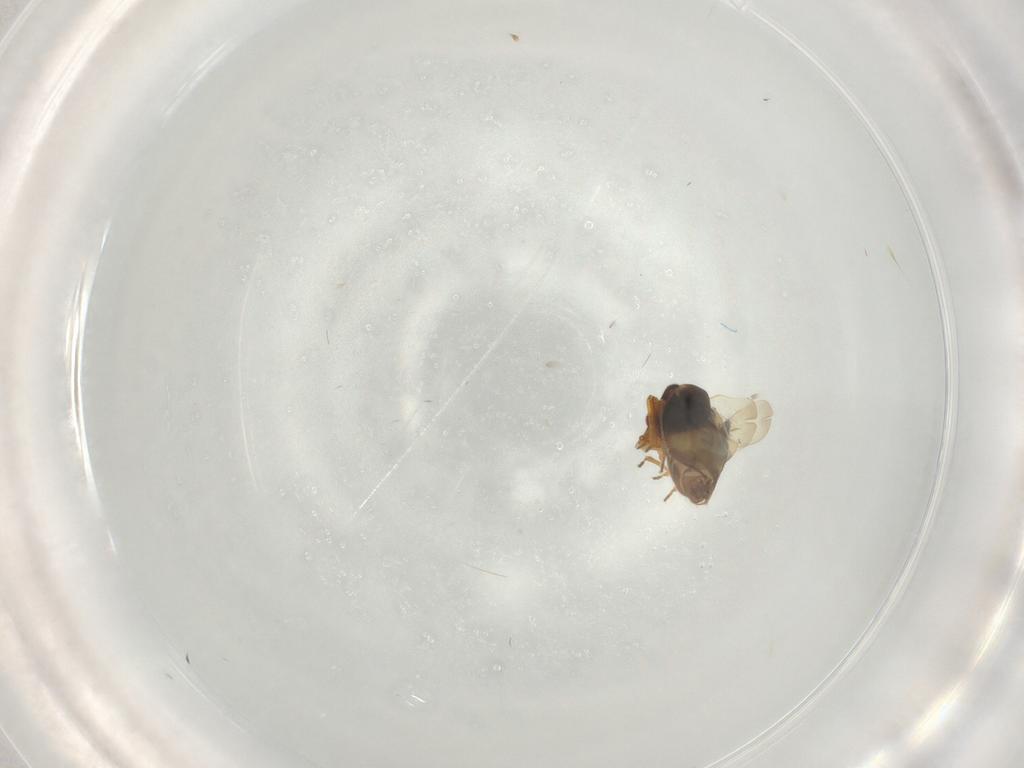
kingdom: Animalia
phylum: Arthropoda
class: Insecta
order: Hemiptera
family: Schizopteridae
